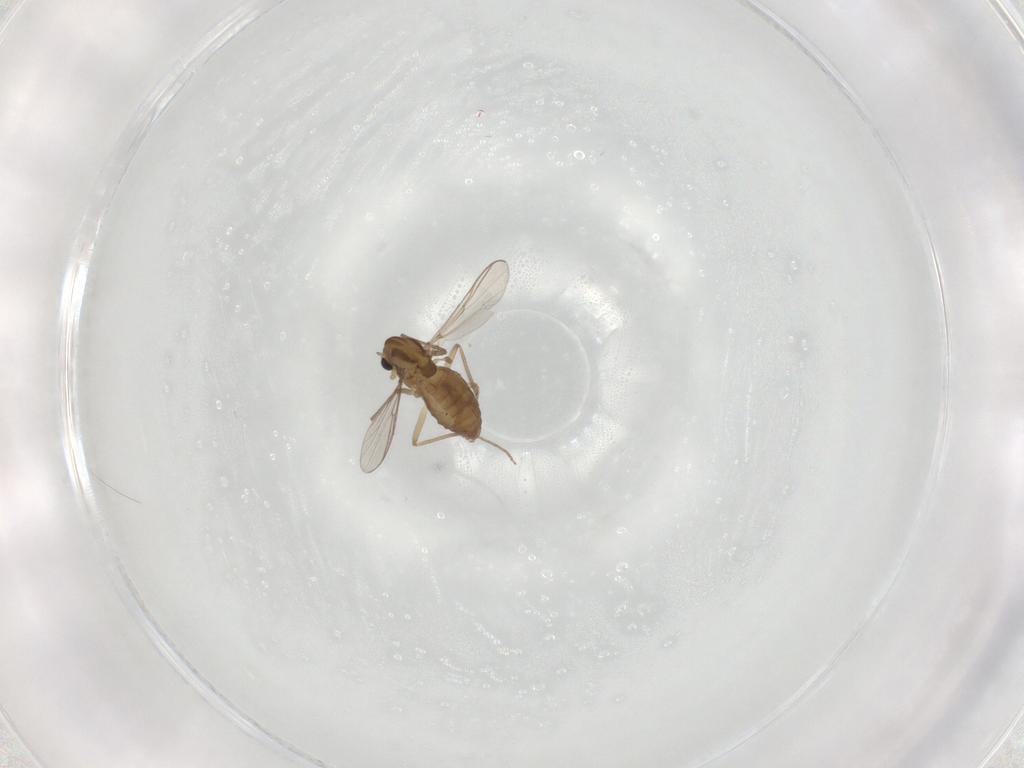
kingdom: Animalia
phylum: Arthropoda
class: Insecta
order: Diptera
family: Chironomidae
